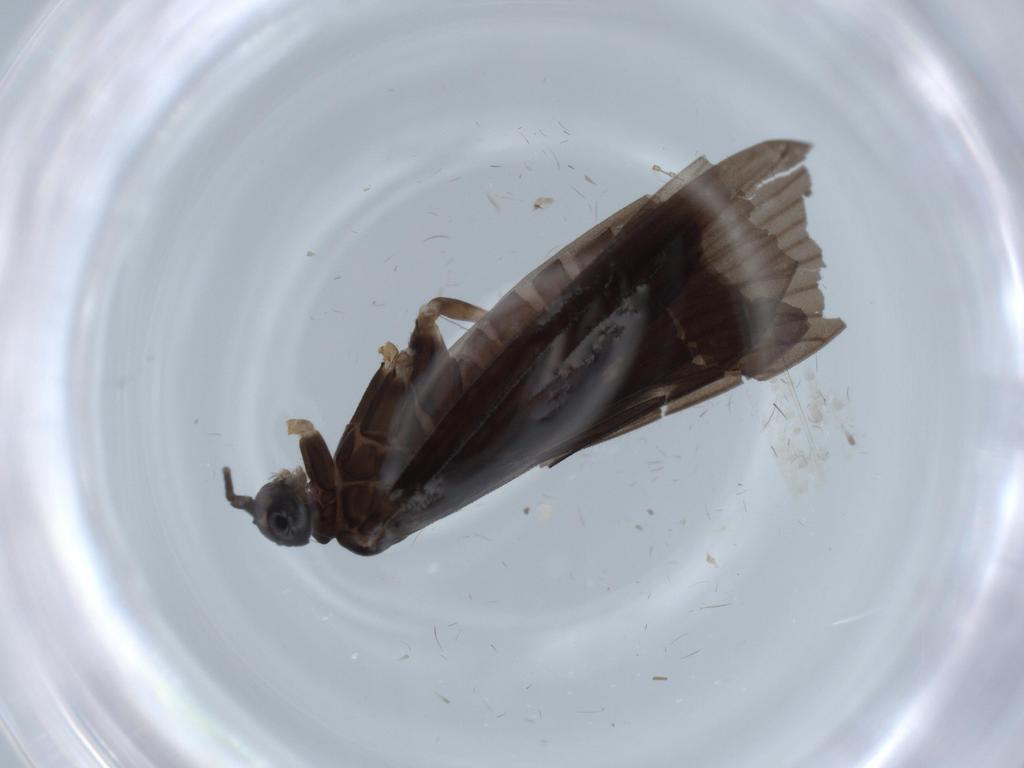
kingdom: Animalia
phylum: Arthropoda
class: Insecta
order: Trichoptera
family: Ptilocolepidae
